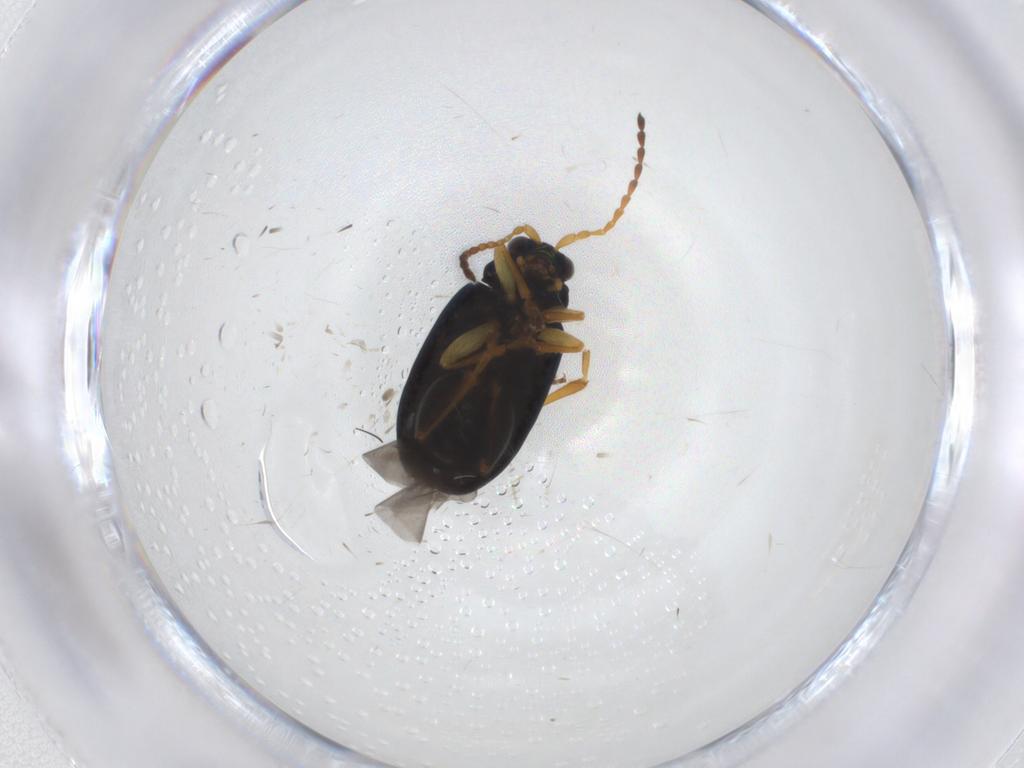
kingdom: Animalia
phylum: Arthropoda
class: Insecta
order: Coleoptera
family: Chrysomelidae
